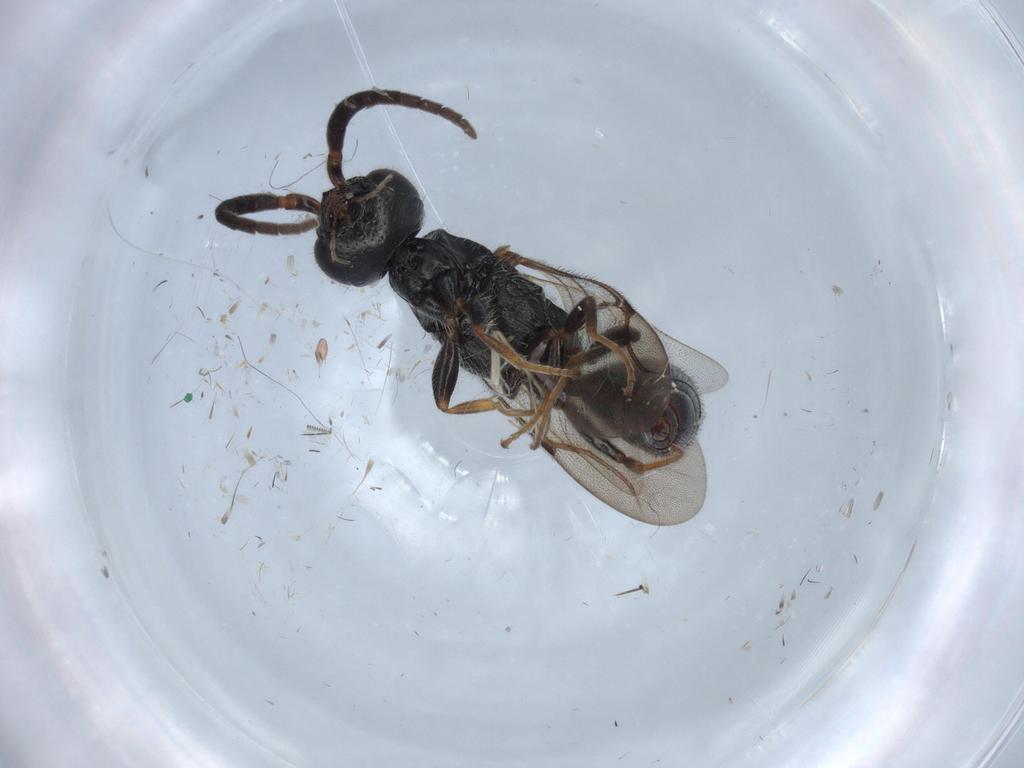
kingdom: Animalia
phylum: Arthropoda
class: Insecta
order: Hymenoptera
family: Bethylidae
